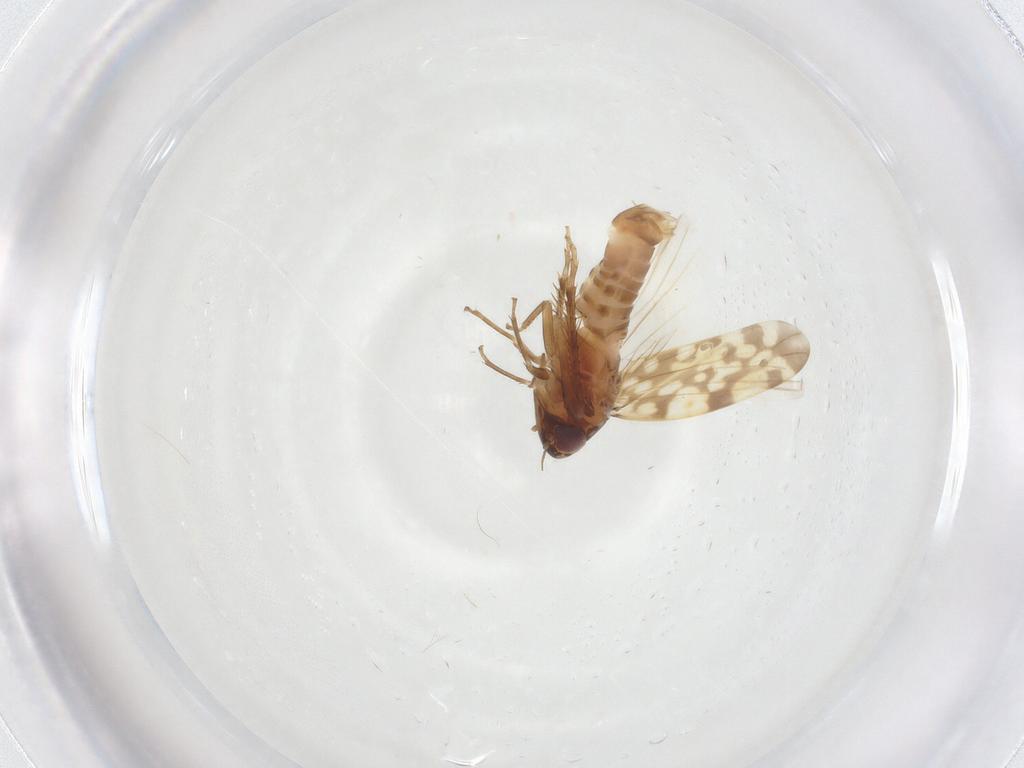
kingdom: Animalia
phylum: Arthropoda
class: Insecta
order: Hemiptera
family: Cicadellidae
